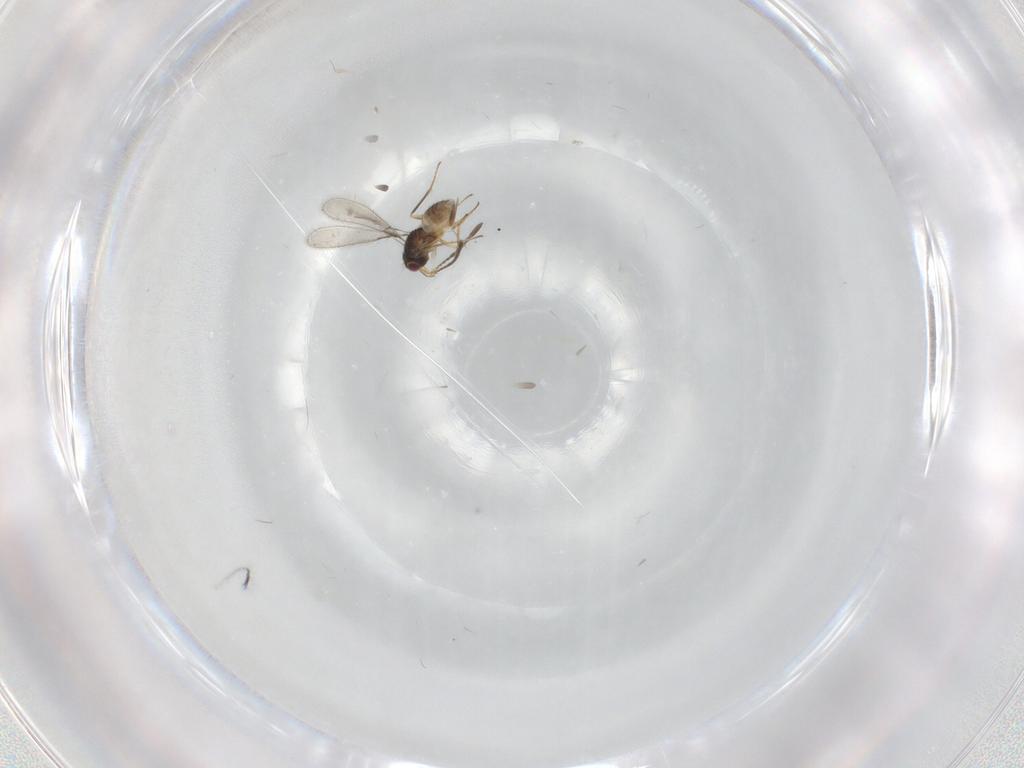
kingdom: Animalia
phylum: Arthropoda
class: Insecta
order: Hymenoptera
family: Mymaridae
